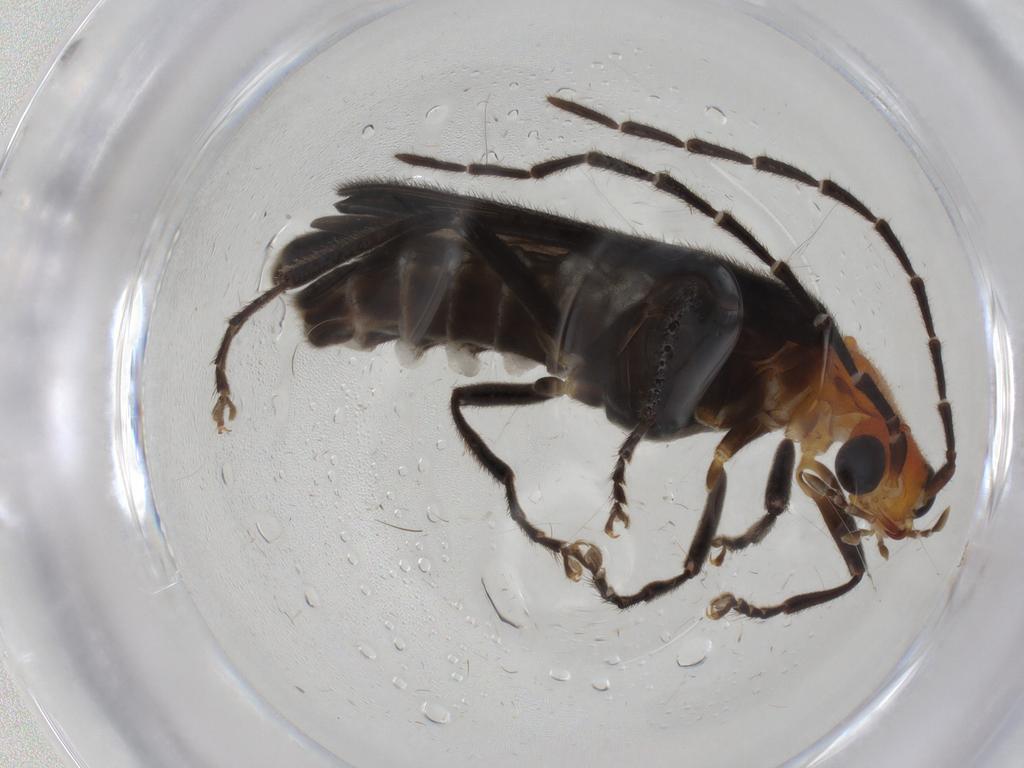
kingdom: Animalia
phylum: Arthropoda
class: Insecta
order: Coleoptera
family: Cantharidae
